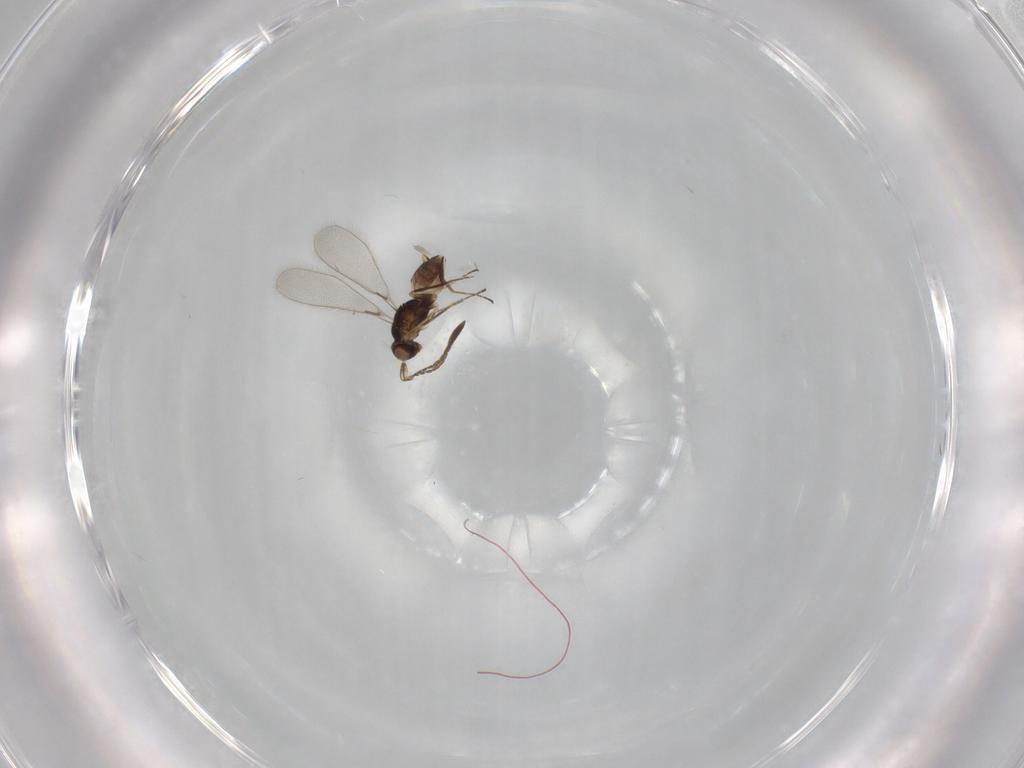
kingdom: Animalia
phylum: Arthropoda
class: Insecta
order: Hymenoptera
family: Mymaridae
